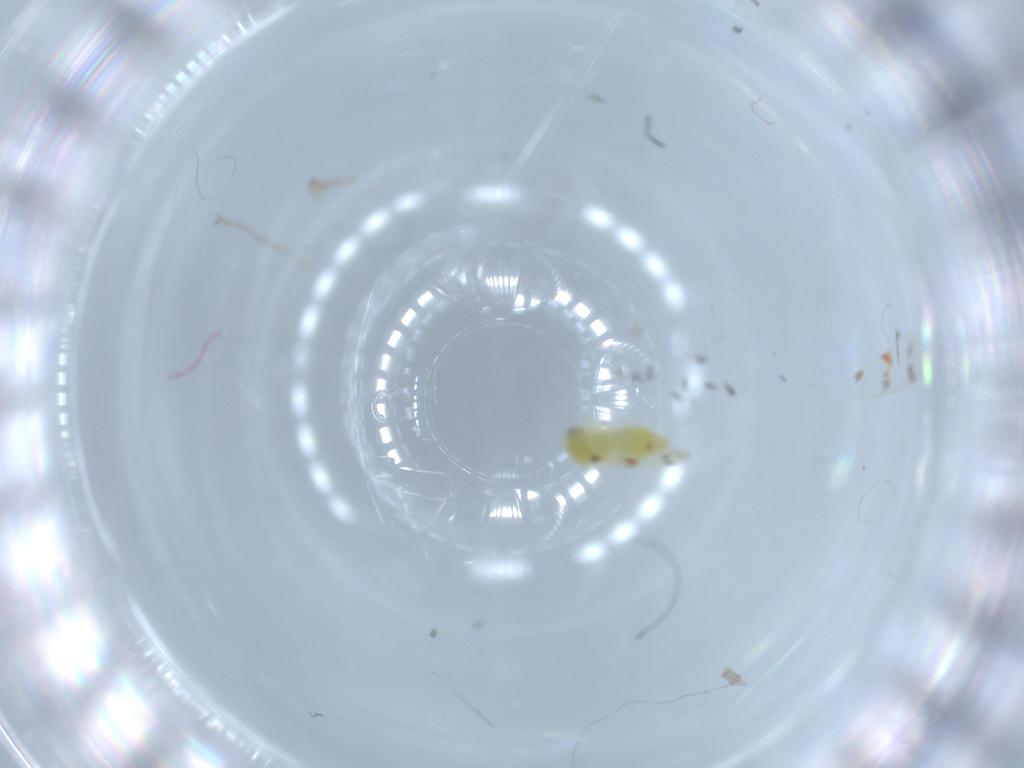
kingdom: Animalia
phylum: Arthropoda
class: Insecta
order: Hemiptera
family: Aleyrodidae
